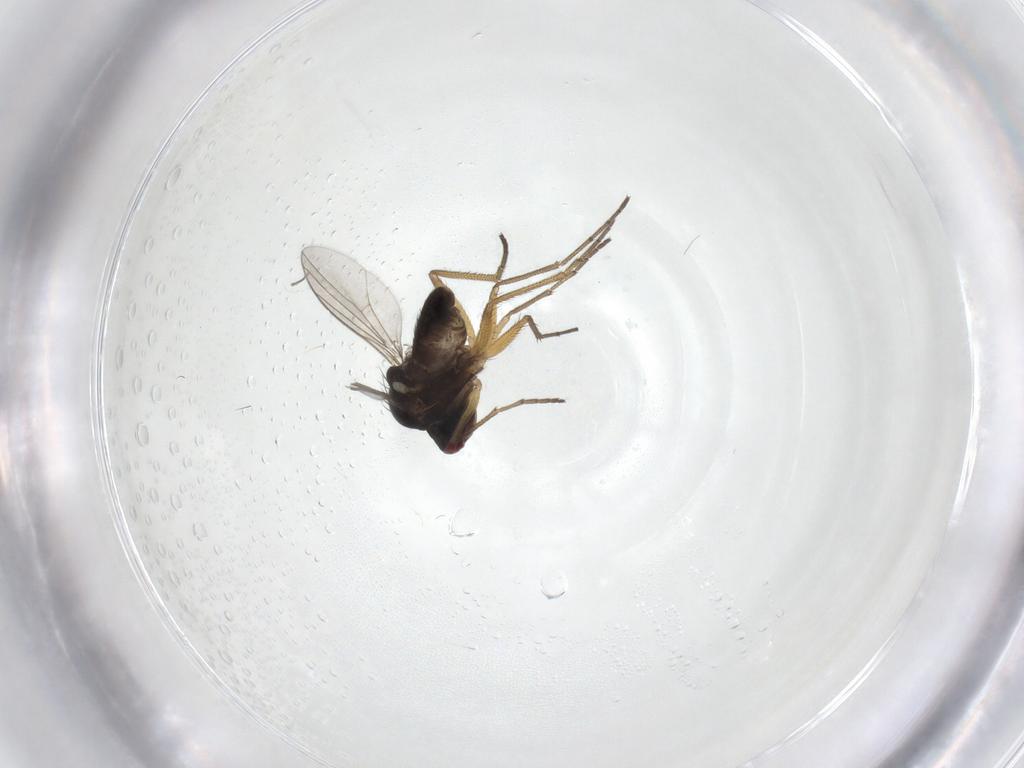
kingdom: Animalia
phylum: Arthropoda
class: Insecta
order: Diptera
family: Dolichopodidae
